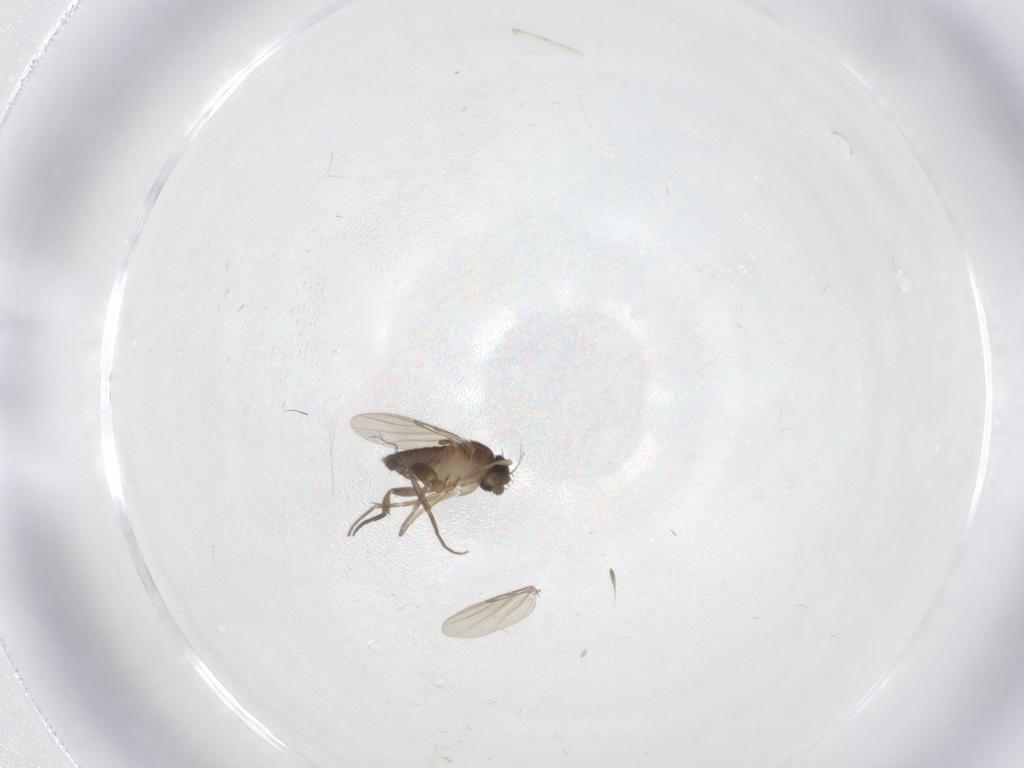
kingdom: Animalia
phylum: Arthropoda
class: Insecta
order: Diptera
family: Phoridae
